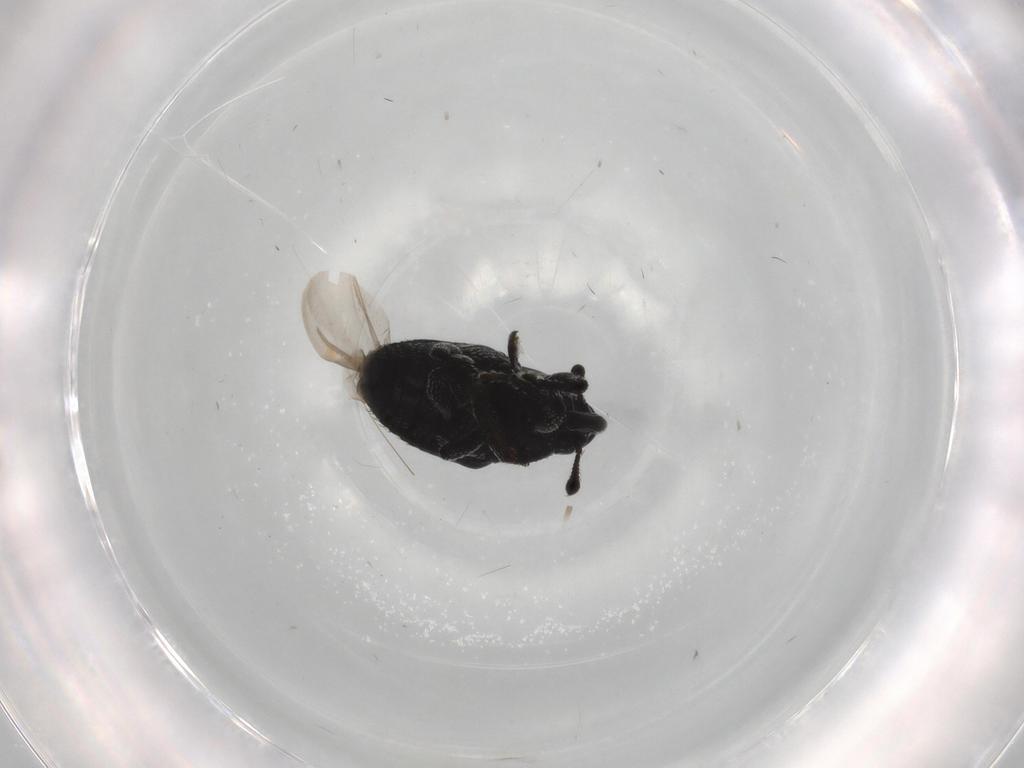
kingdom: Animalia
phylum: Arthropoda
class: Insecta
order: Coleoptera
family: Curculionidae
